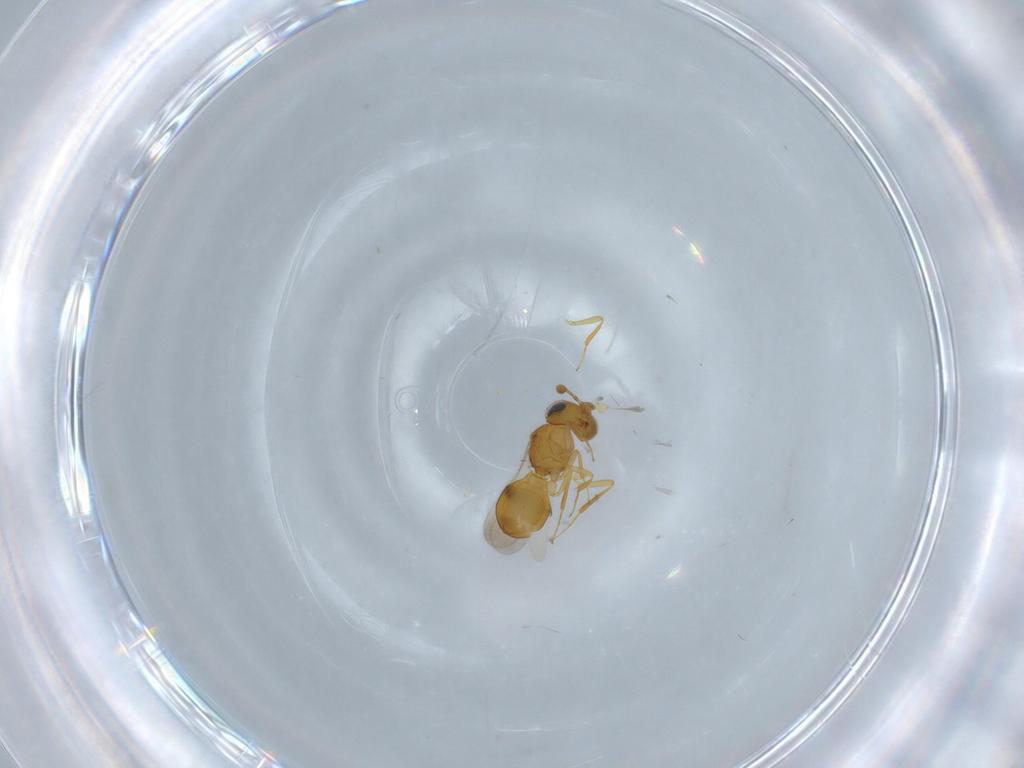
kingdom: Animalia
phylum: Arthropoda
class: Insecta
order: Hymenoptera
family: Scelionidae
